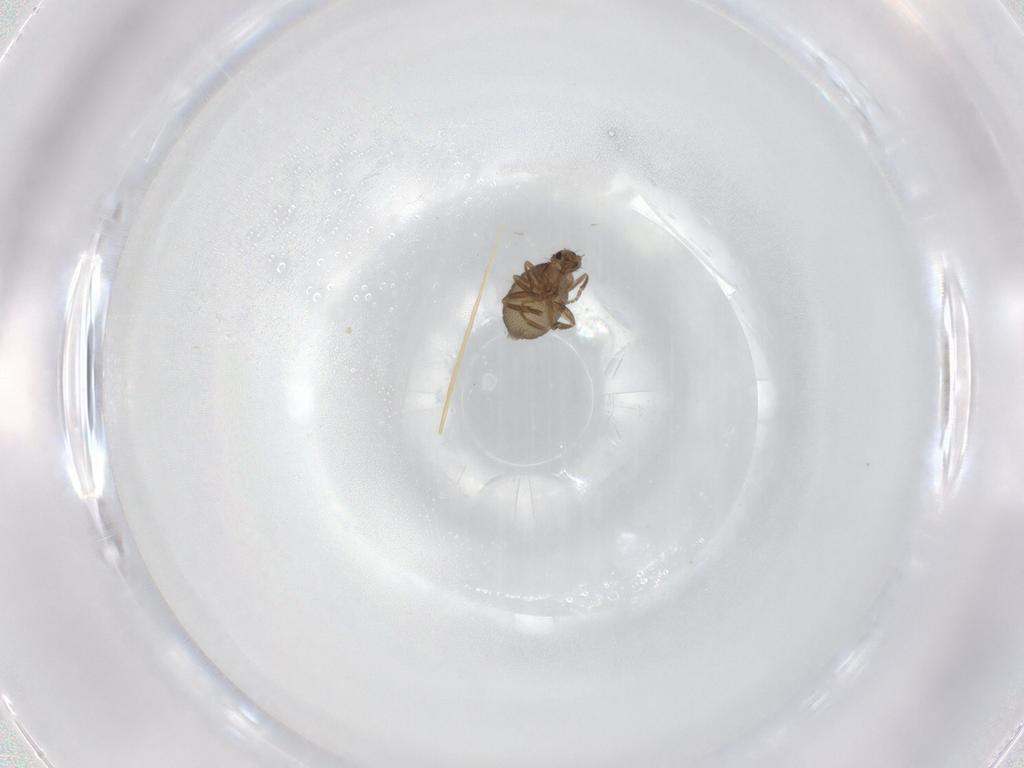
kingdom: Animalia
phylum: Arthropoda
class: Insecta
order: Diptera
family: Phoridae
